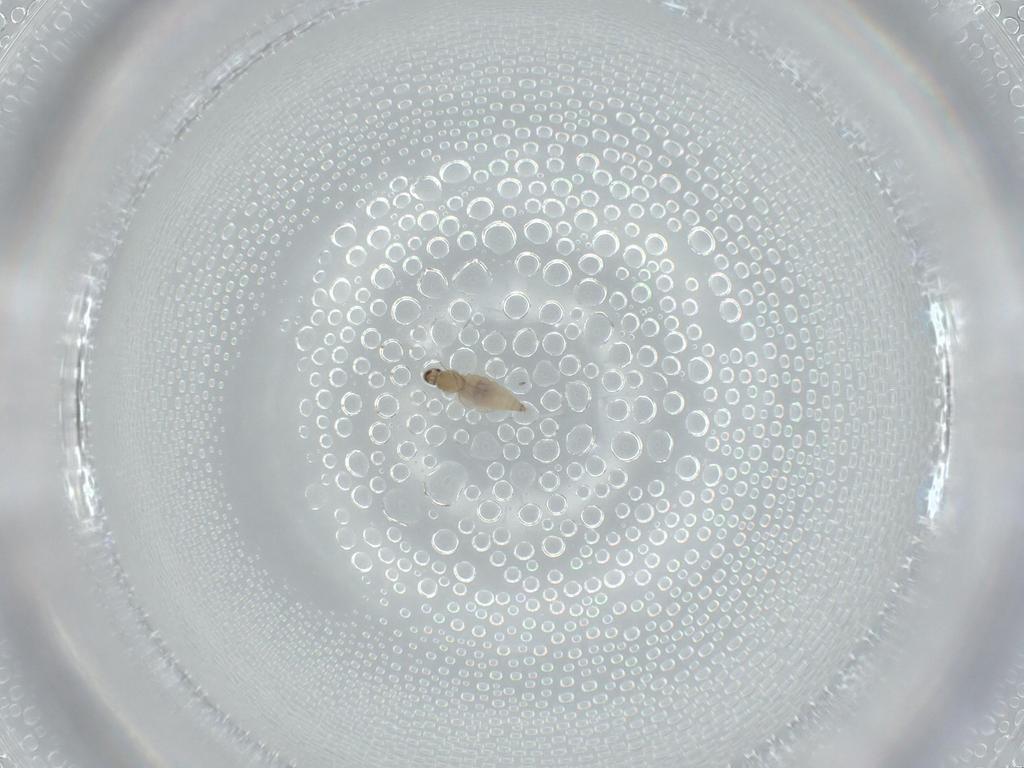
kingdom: Animalia
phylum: Arthropoda
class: Insecta
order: Diptera
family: Cecidomyiidae
